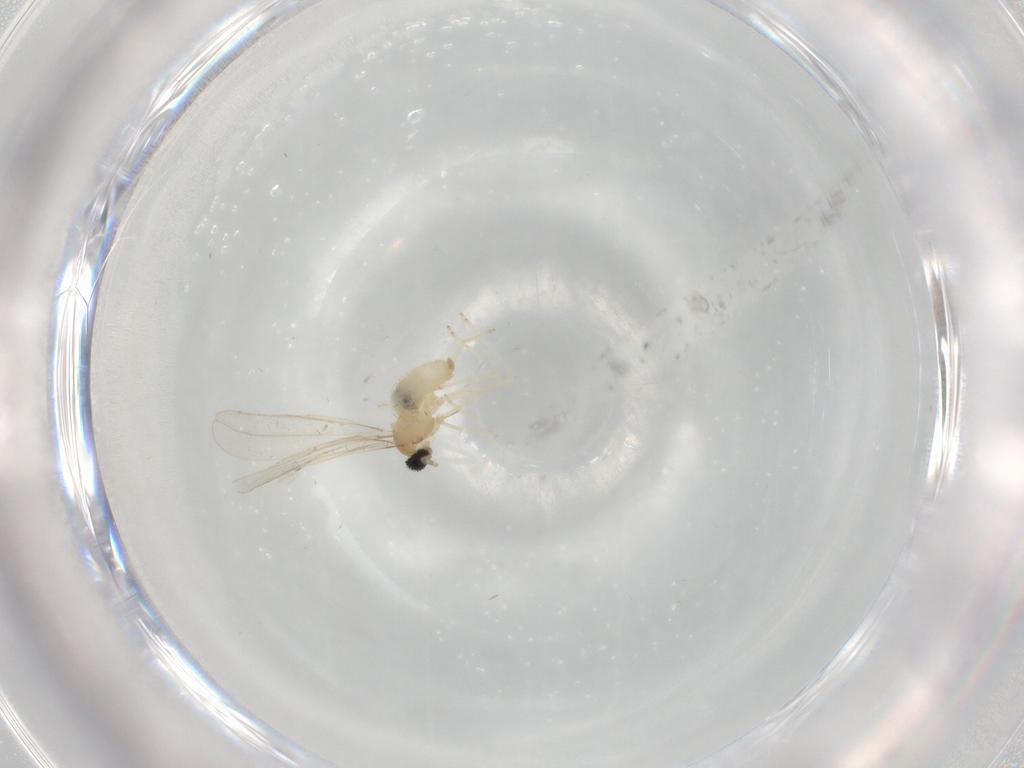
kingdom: Animalia
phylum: Arthropoda
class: Insecta
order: Diptera
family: Cecidomyiidae
